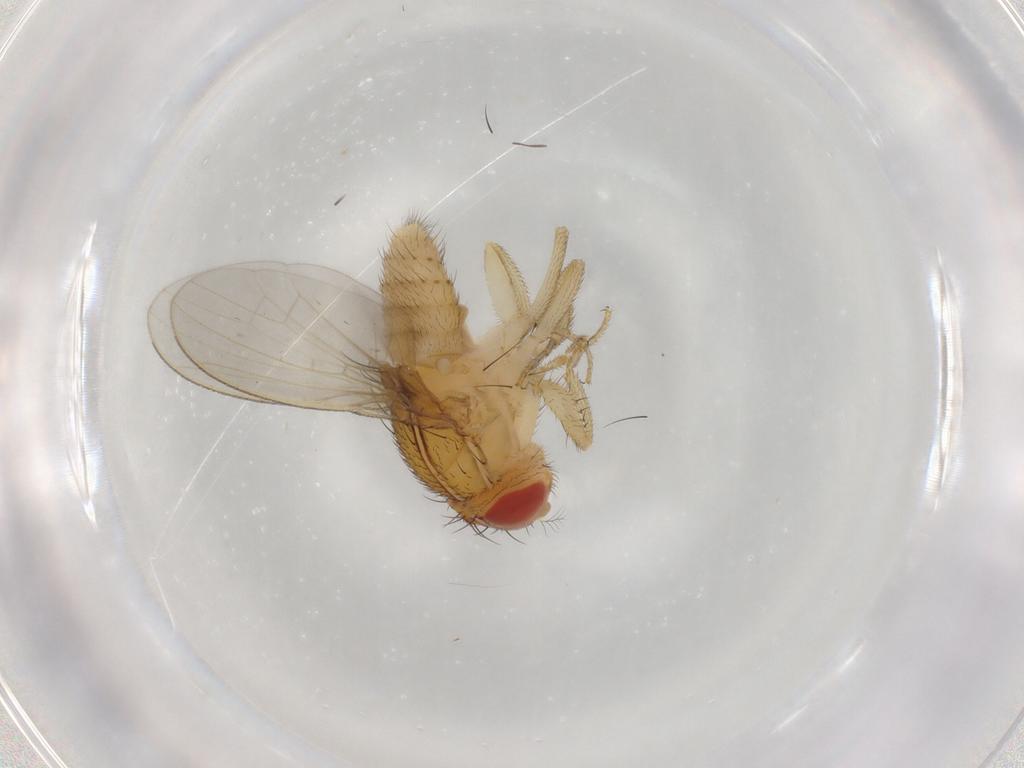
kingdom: Animalia
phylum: Arthropoda
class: Insecta
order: Diptera
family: Drosophilidae
